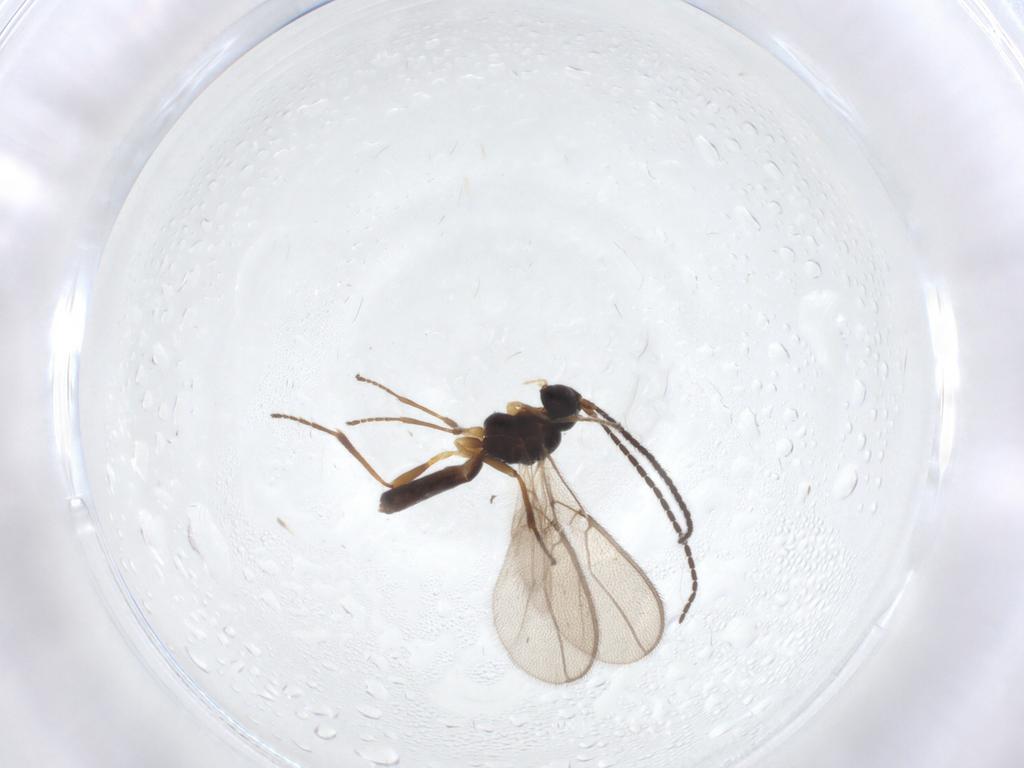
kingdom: Animalia
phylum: Arthropoda
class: Insecta
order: Hymenoptera
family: Braconidae
